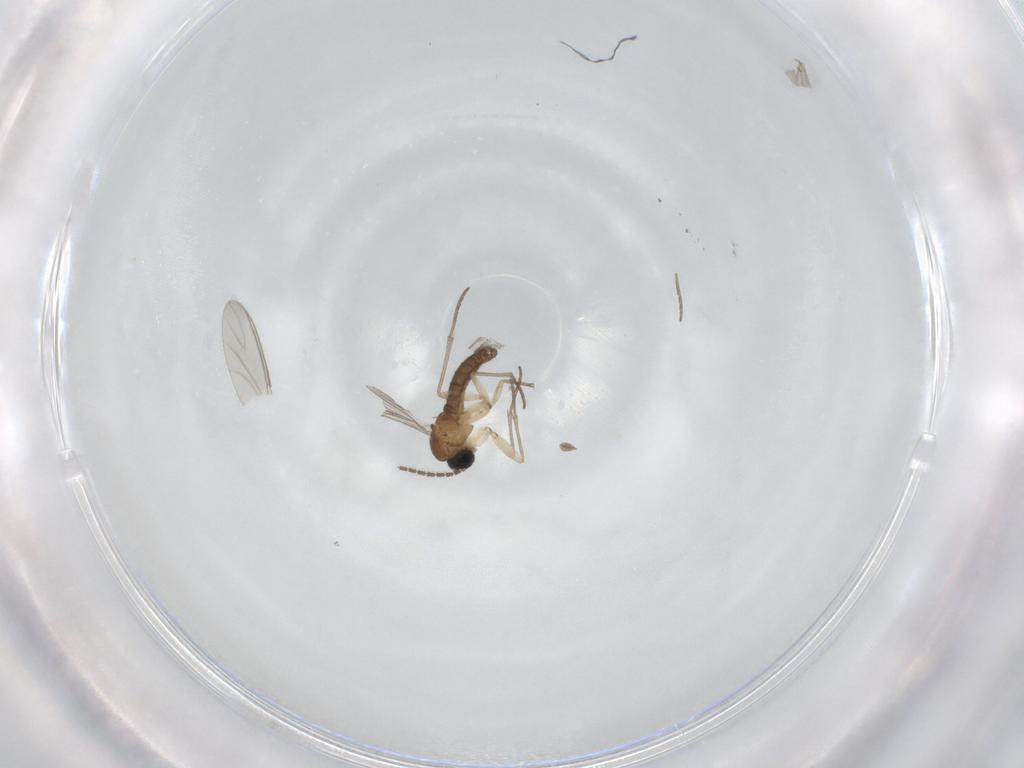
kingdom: Animalia
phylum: Arthropoda
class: Insecta
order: Diptera
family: Sciaridae
